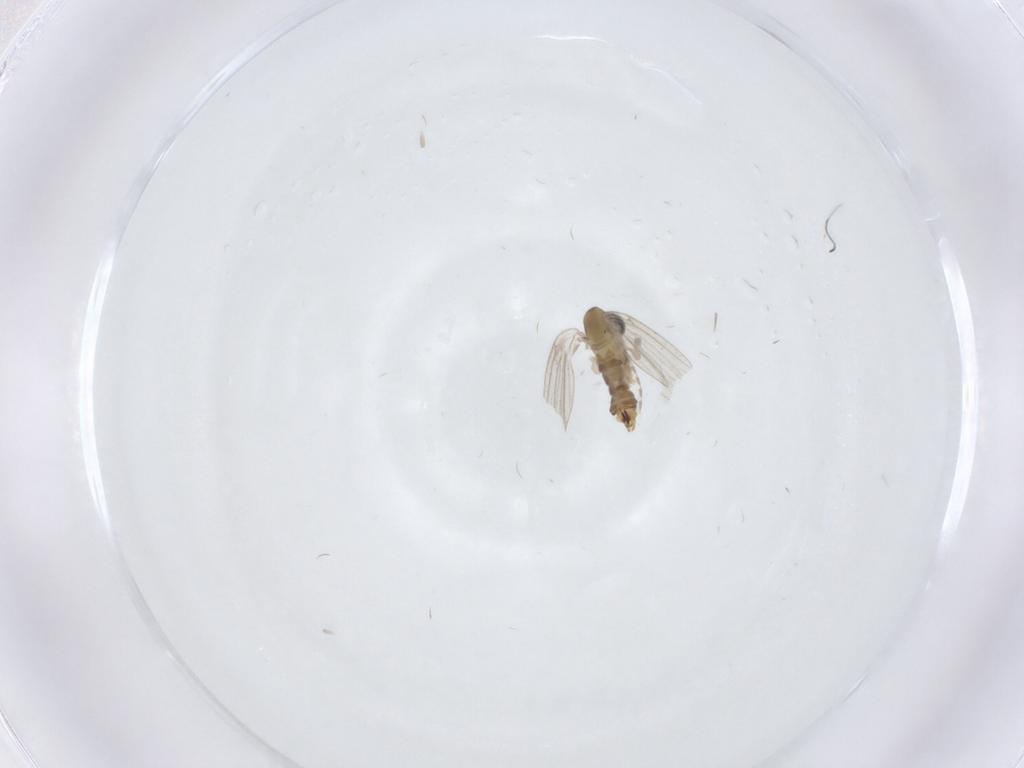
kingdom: Animalia
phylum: Arthropoda
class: Insecta
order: Diptera
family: Psychodidae
